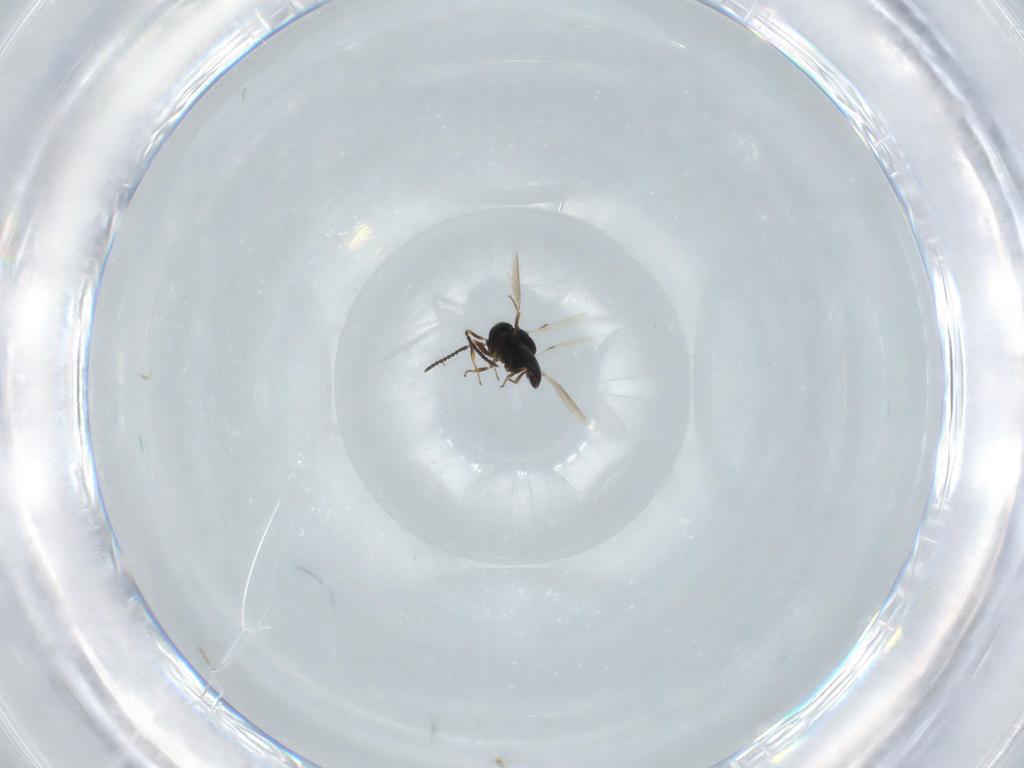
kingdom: Animalia
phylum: Arthropoda
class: Insecta
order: Hymenoptera
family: Scelionidae
